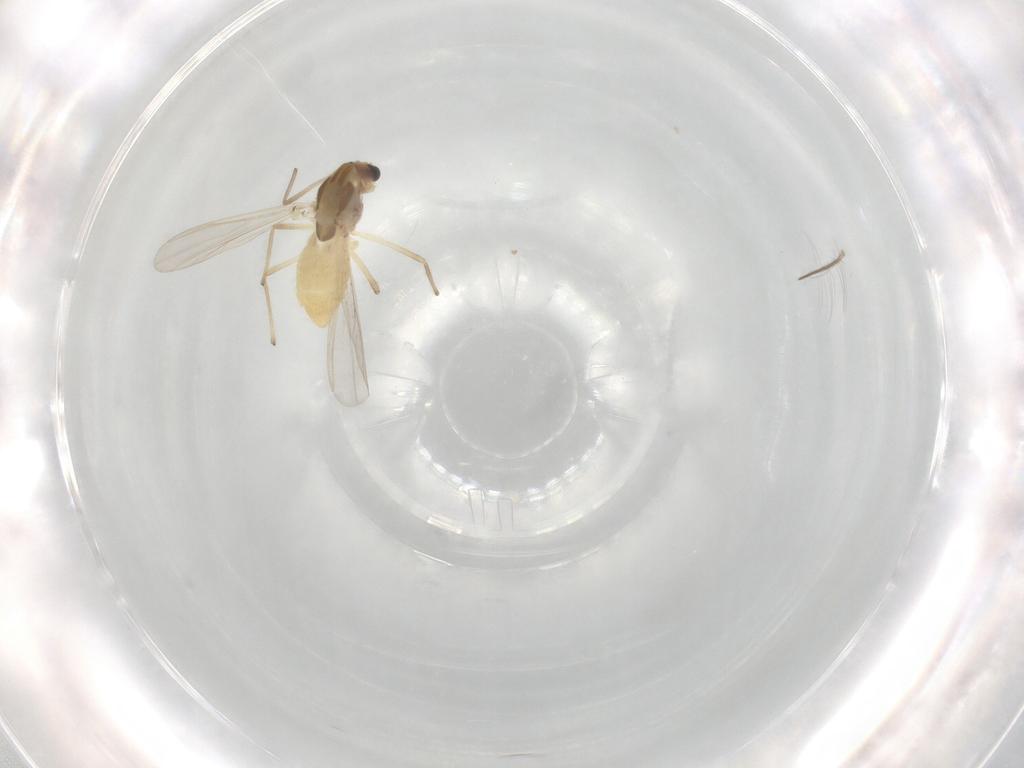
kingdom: Animalia
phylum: Arthropoda
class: Insecta
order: Diptera
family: Chironomidae
